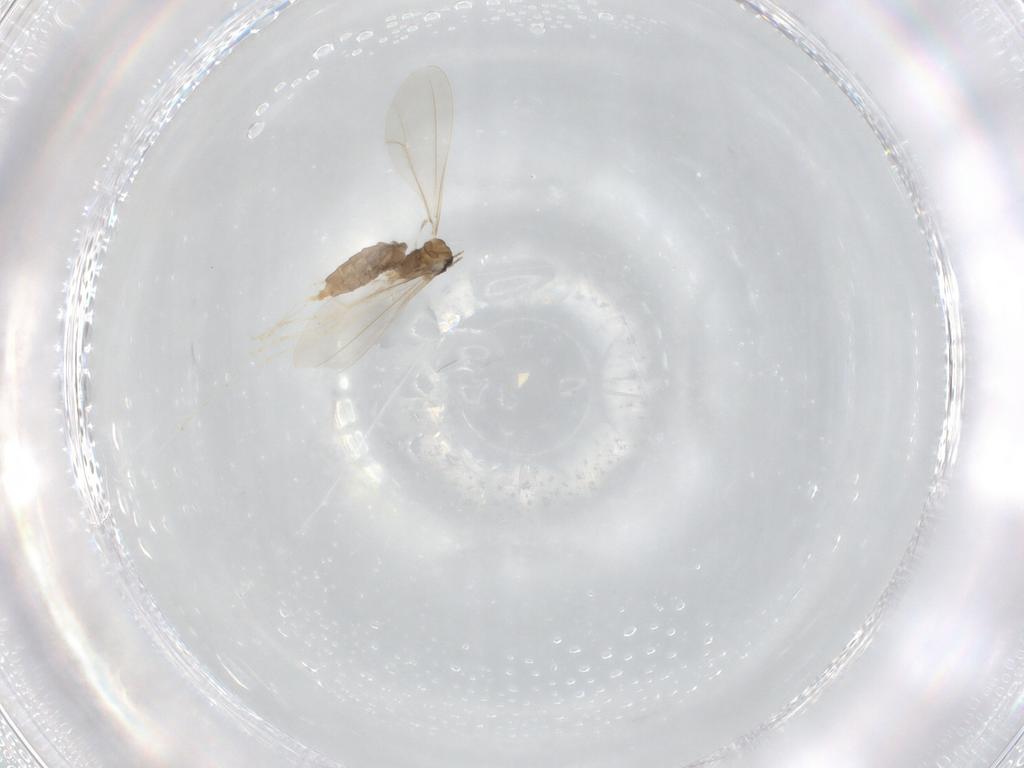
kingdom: Animalia
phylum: Arthropoda
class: Insecta
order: Diptera
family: Cecidomyiidae
